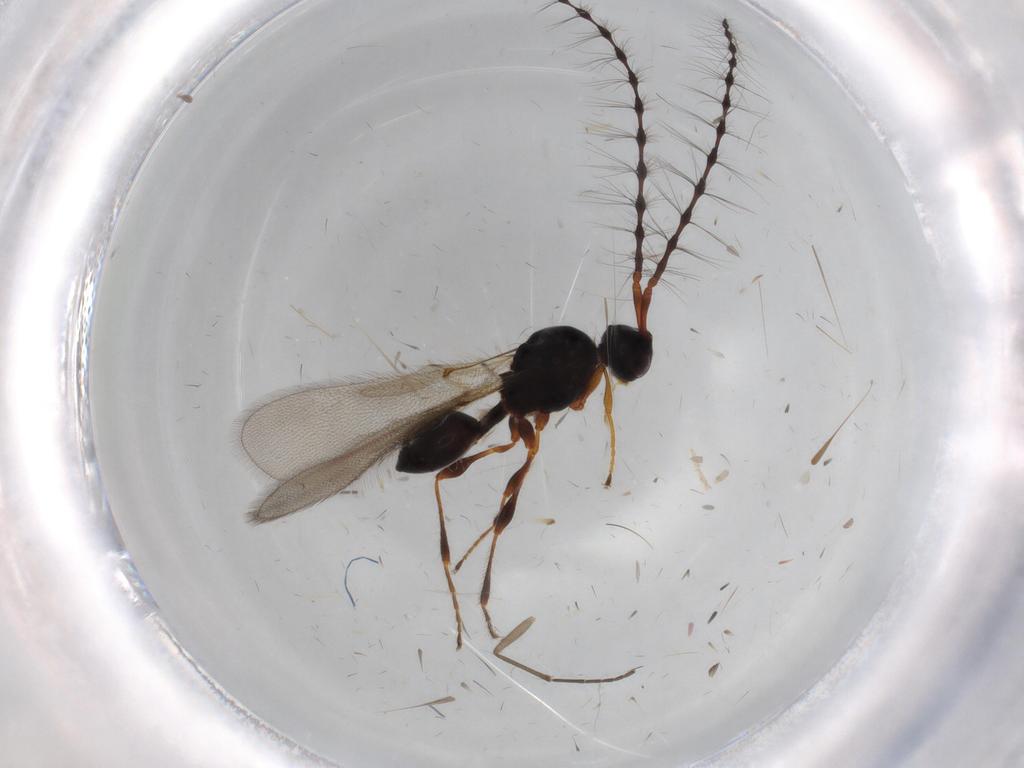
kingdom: Animalia
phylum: Arthropoda
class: Insecta
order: Hymenoptera
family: Diapriidae
